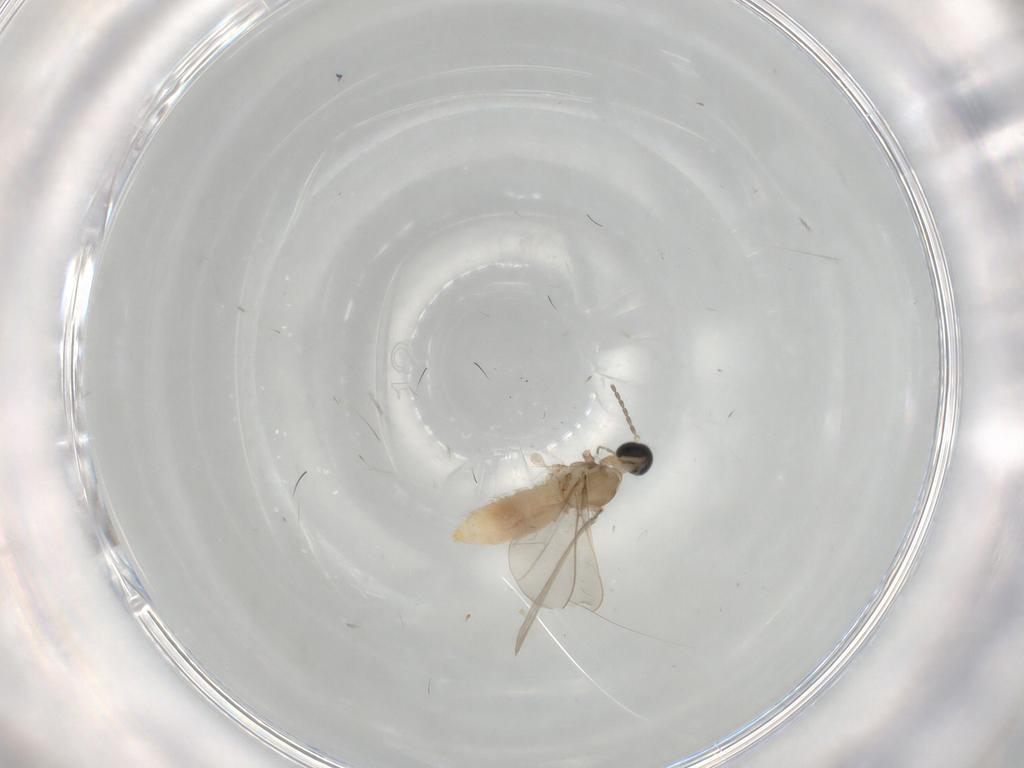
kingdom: Animalia
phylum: Arthropoda
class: Insecta
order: Diptera
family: Cecidomyiidae
